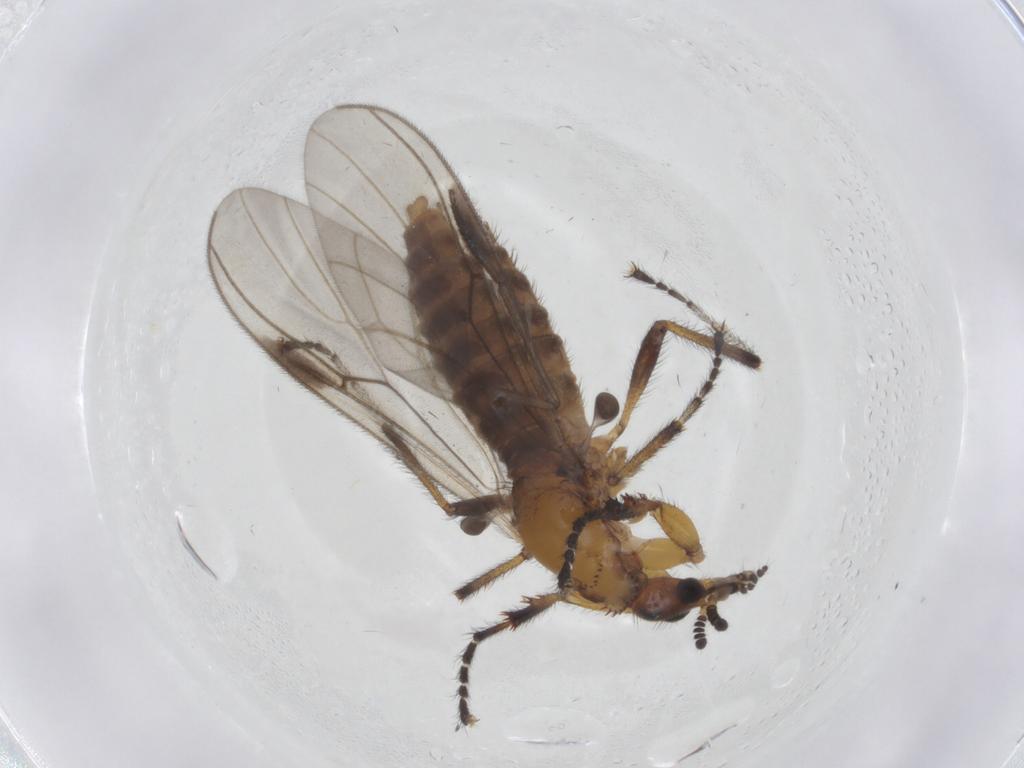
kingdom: Animalia
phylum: Arthropoda
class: Insecta
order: Diptera
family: Bibionidae
